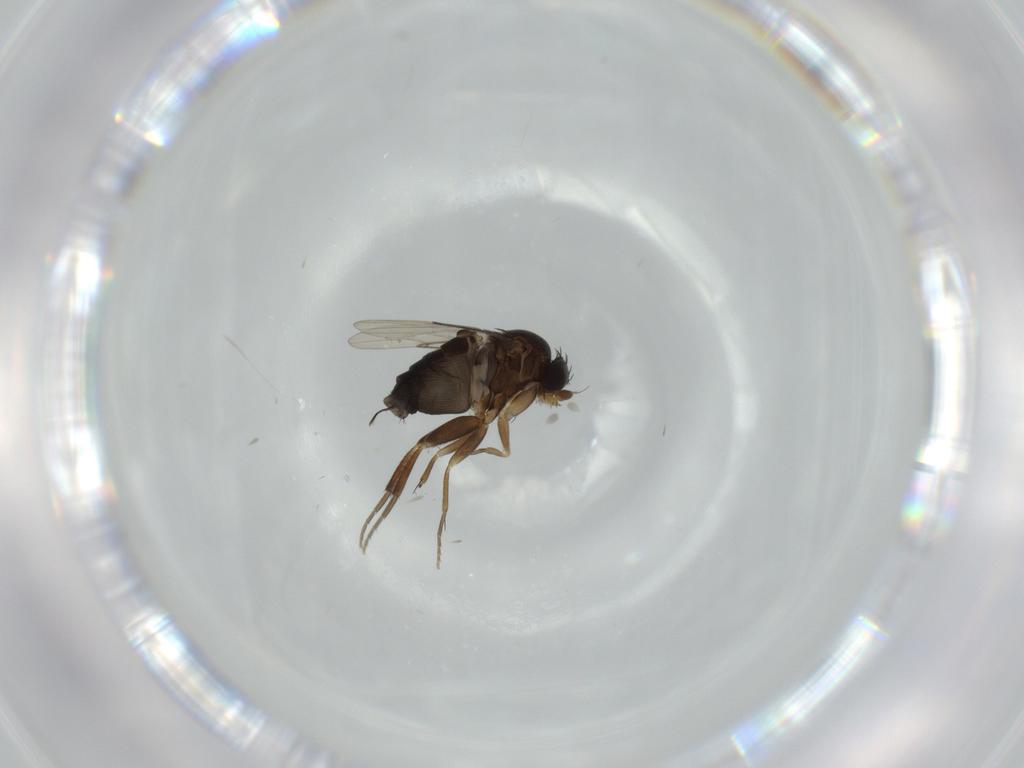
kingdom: Animalia
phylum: Arthropoda
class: Insecta
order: Diptera
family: Phoridae
